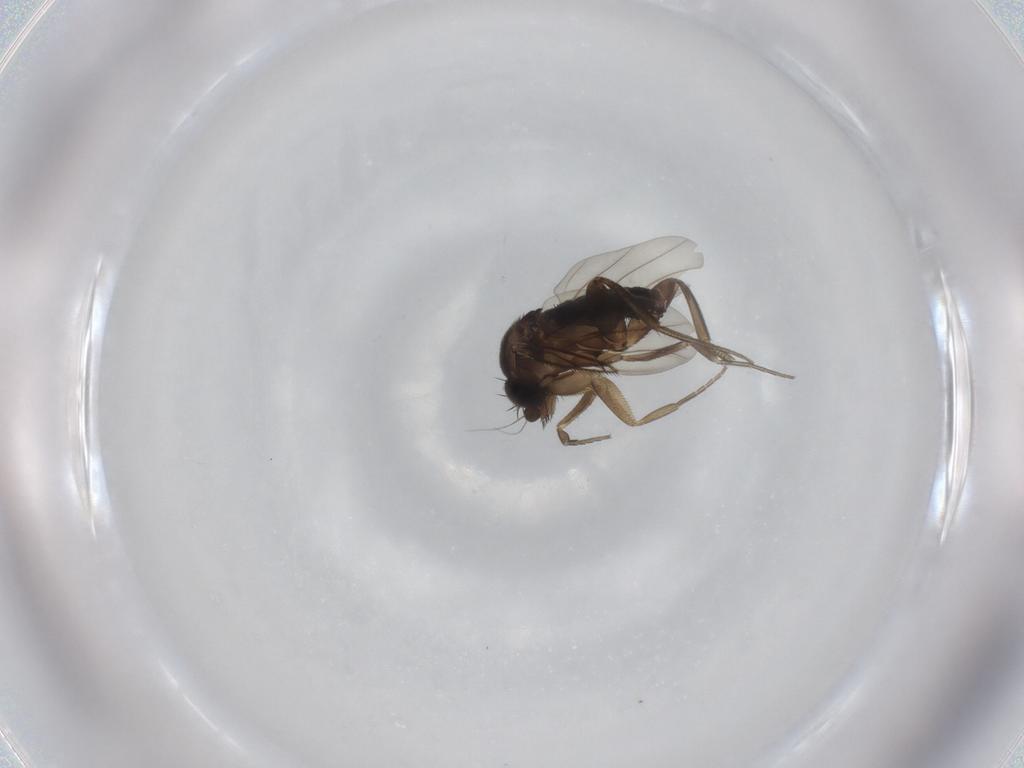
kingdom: Animalia
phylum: Arthropoda
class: Insecta
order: Diptera
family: Phoridae
